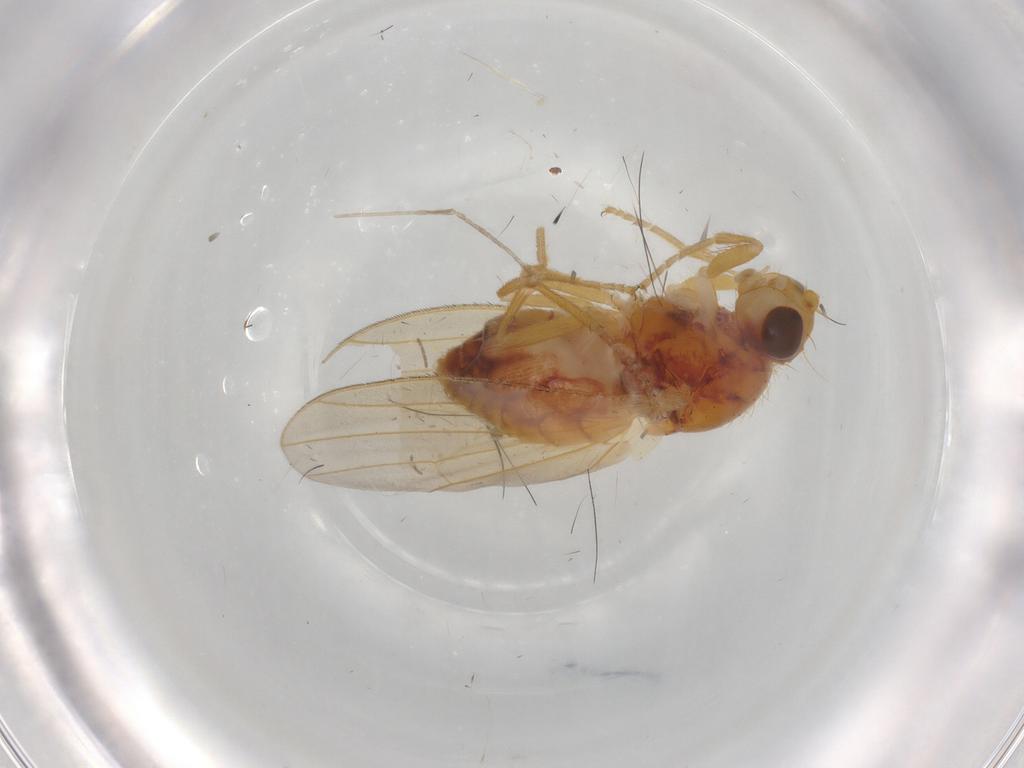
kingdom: Animalia
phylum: Arthropoda
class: Insecta
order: Diptera
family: Heleomyzidae
